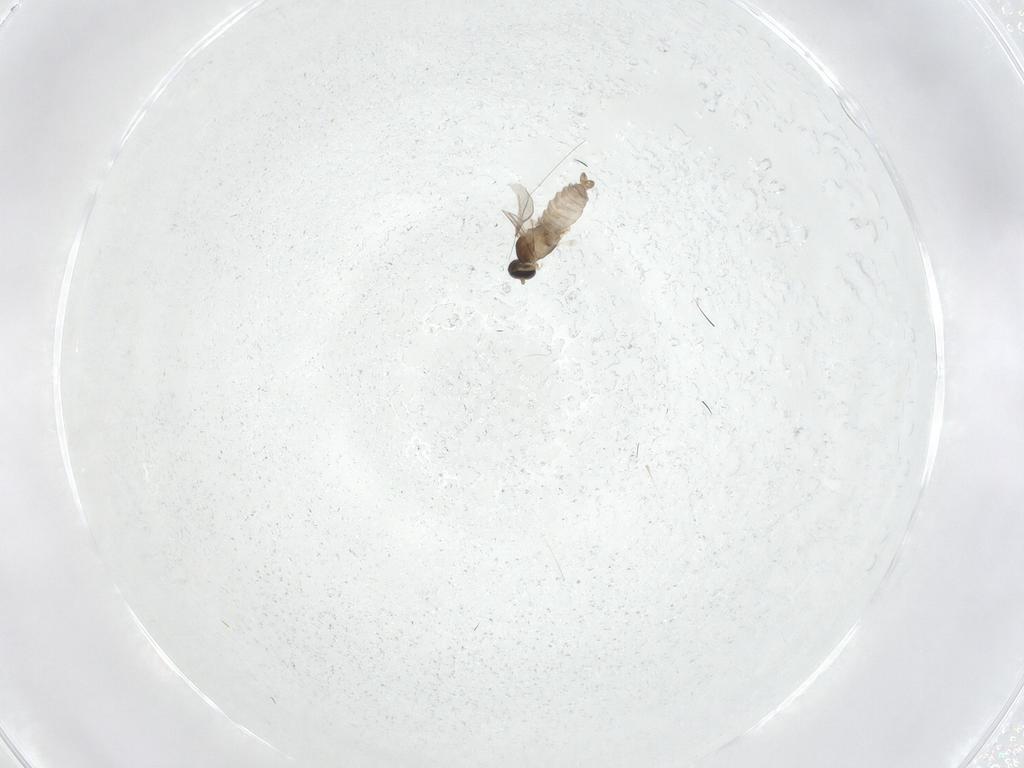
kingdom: Animalia
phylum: Arthropoda
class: Insecta
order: Diptera
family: Cecidomyiidae
